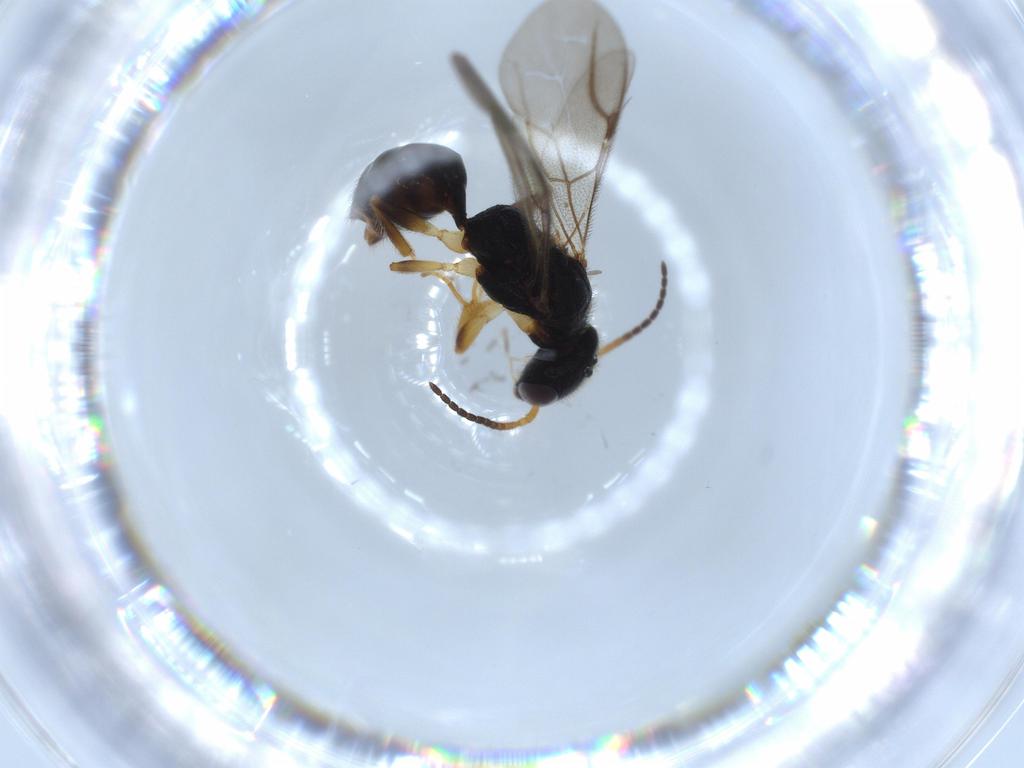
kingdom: Animalia
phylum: Arthropoda
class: Insecta
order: Hymenoptera
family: Bethylidae
